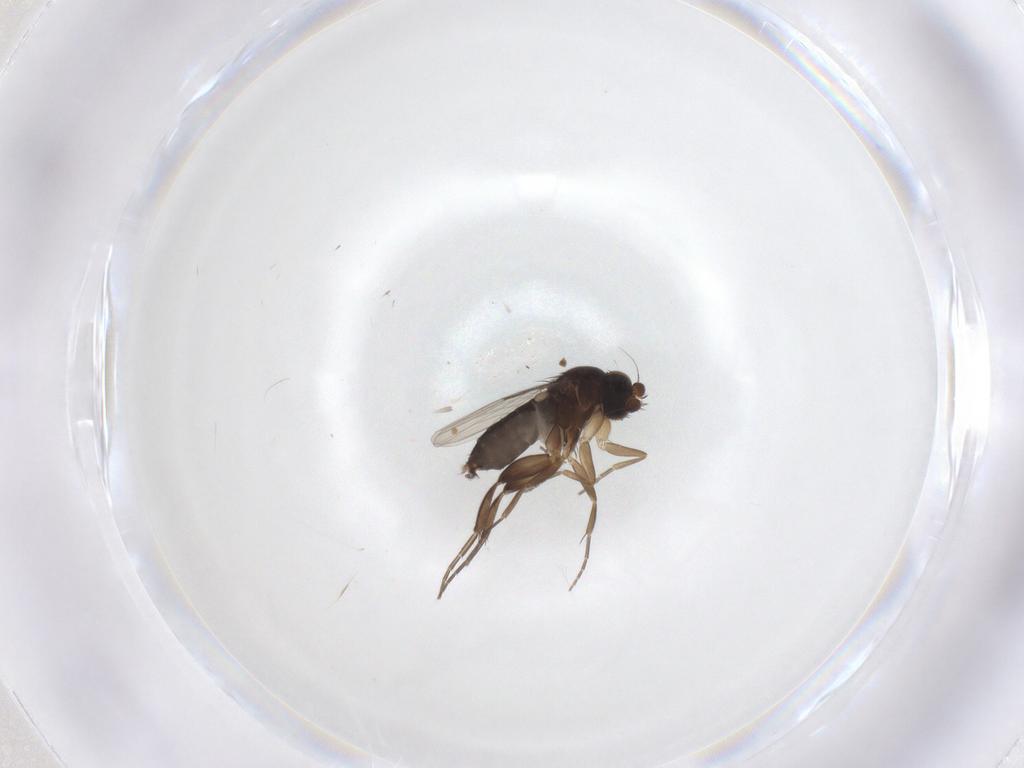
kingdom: Animalia
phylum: Arthropoda
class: Insecta
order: Diptera
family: Phoridae
